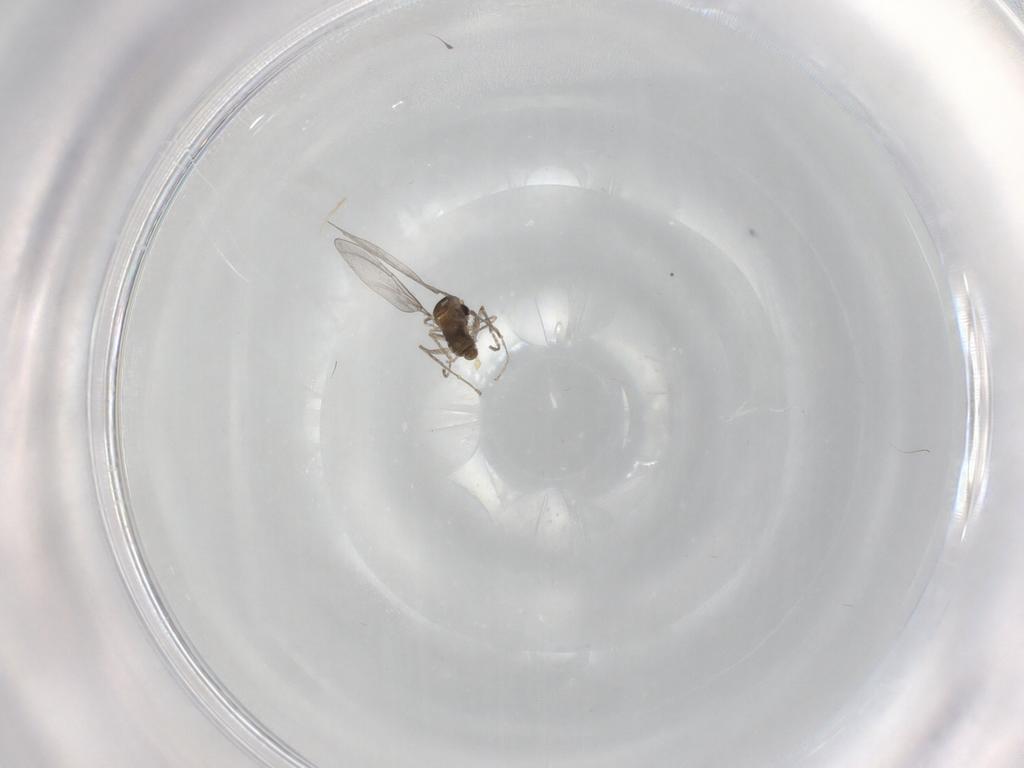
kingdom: Animalia
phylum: Arthropoda
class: Insecta
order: Diptera
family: Cecidomyiidae
